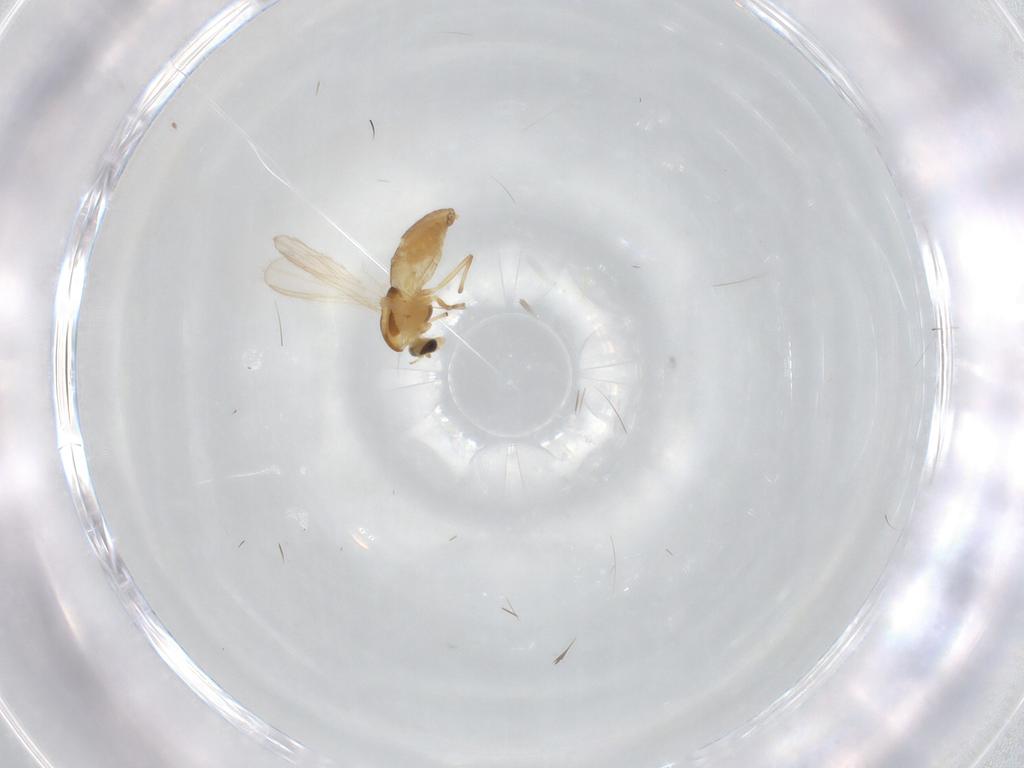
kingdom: Animalia
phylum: Arthropoda
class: Insecta
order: Diptera
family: Chironomidae
